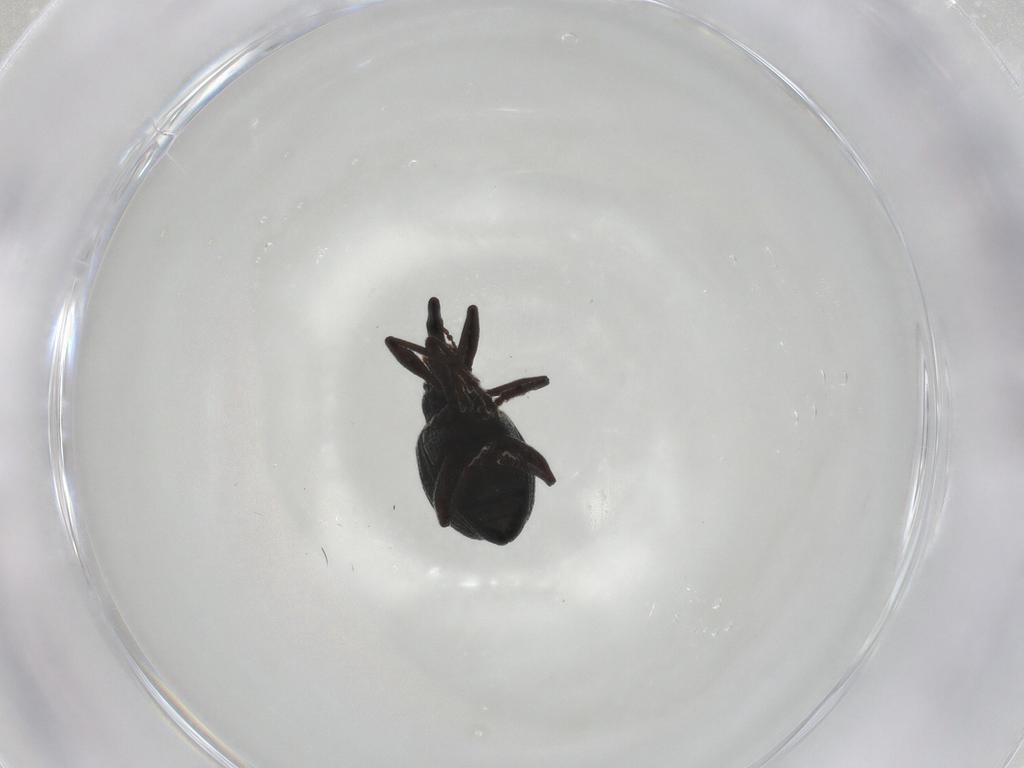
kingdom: Animalia
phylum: Arthropoda
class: Insecta
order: Coleoptera
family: Brentidae
